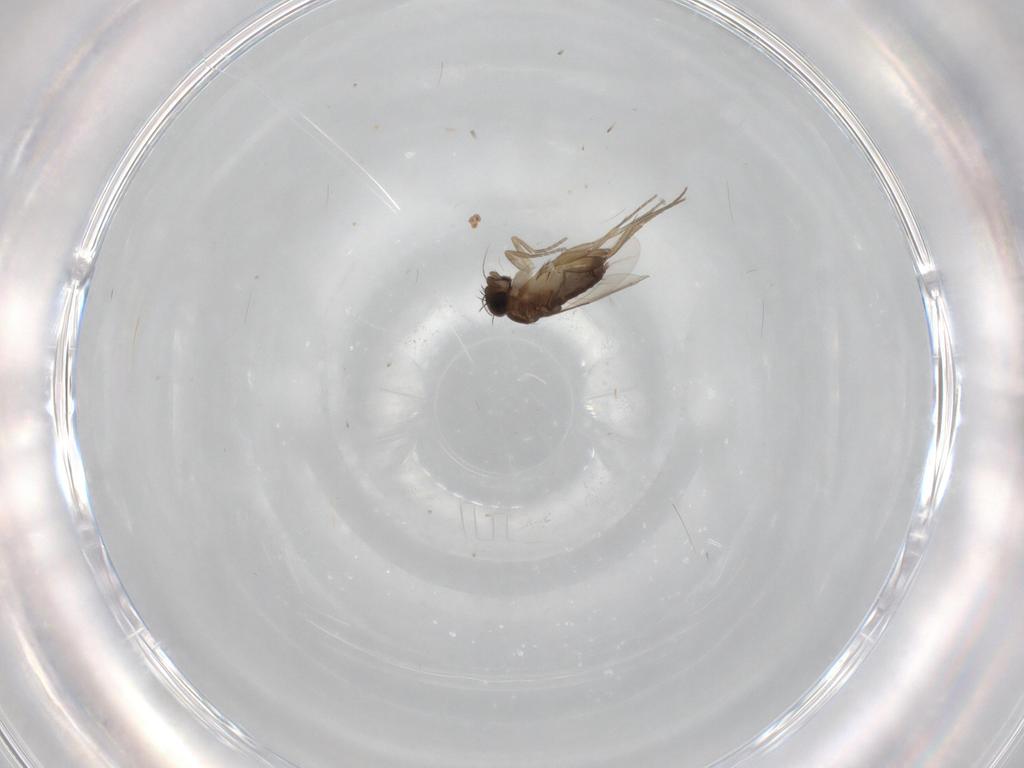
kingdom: Animalia
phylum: Arthropoda
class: Insecta
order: Diptera
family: Phoridae
